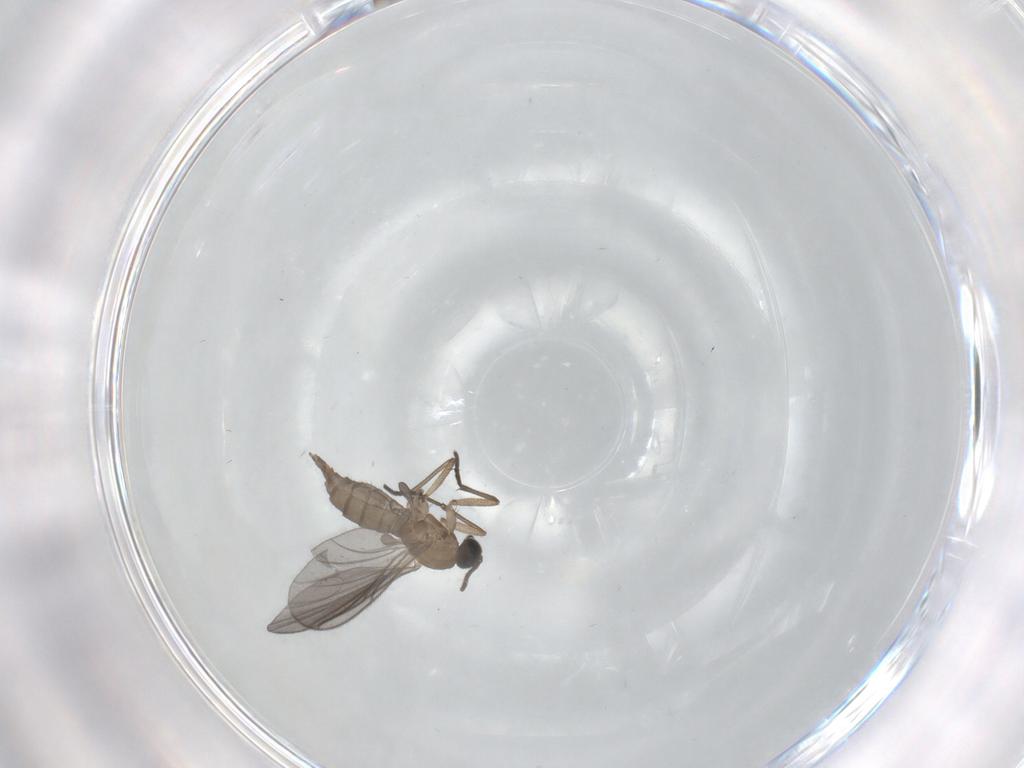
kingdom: Animalia
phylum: Arthropoda
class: Insecta
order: Diptera
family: Sciaridae
